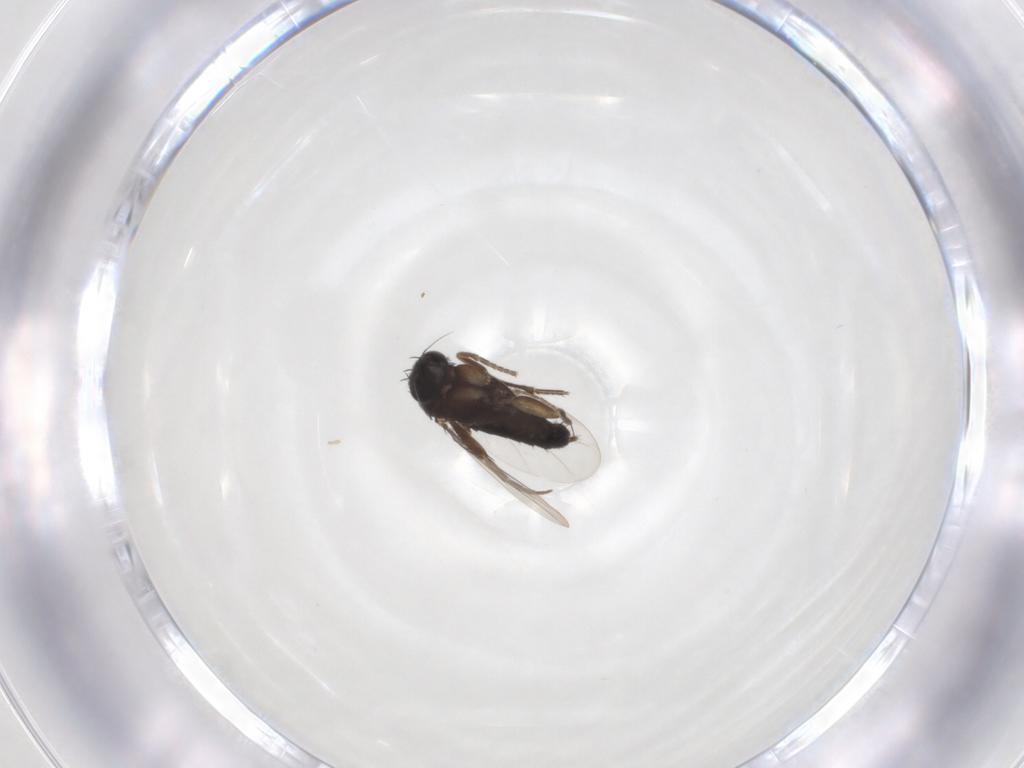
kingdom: Animalia
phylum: Arthropoda
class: Insecta
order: Diptera
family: Phoridae
